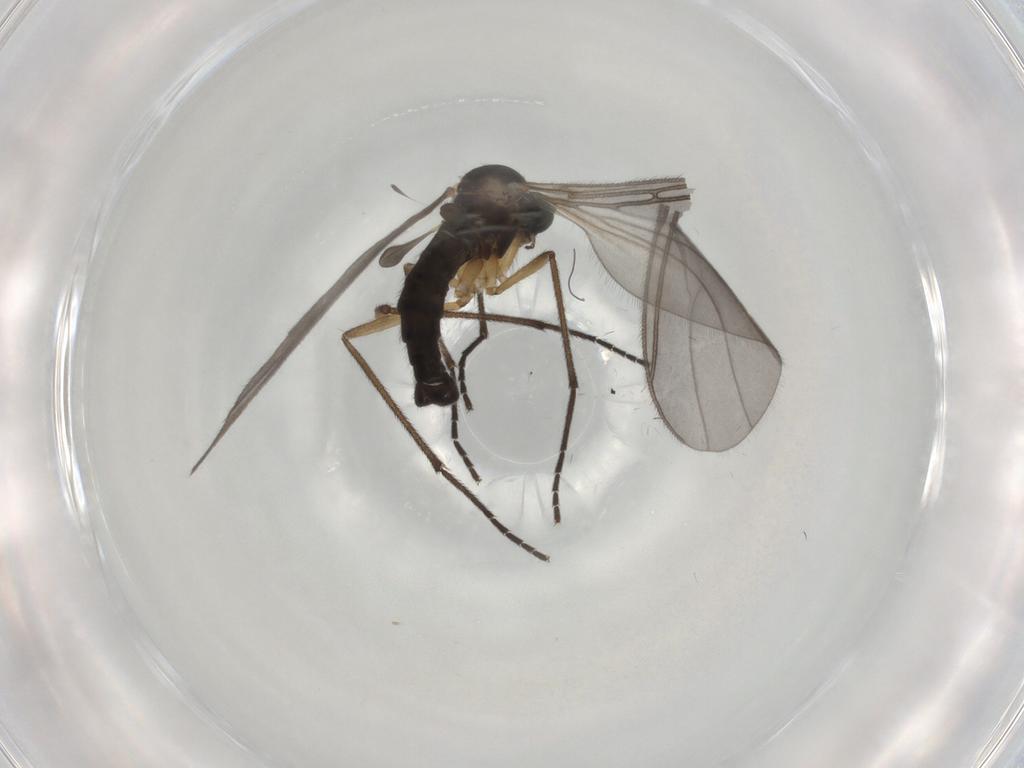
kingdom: Animalia
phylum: Arthropoda
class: Insecta
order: Diptera
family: Sciaridae
